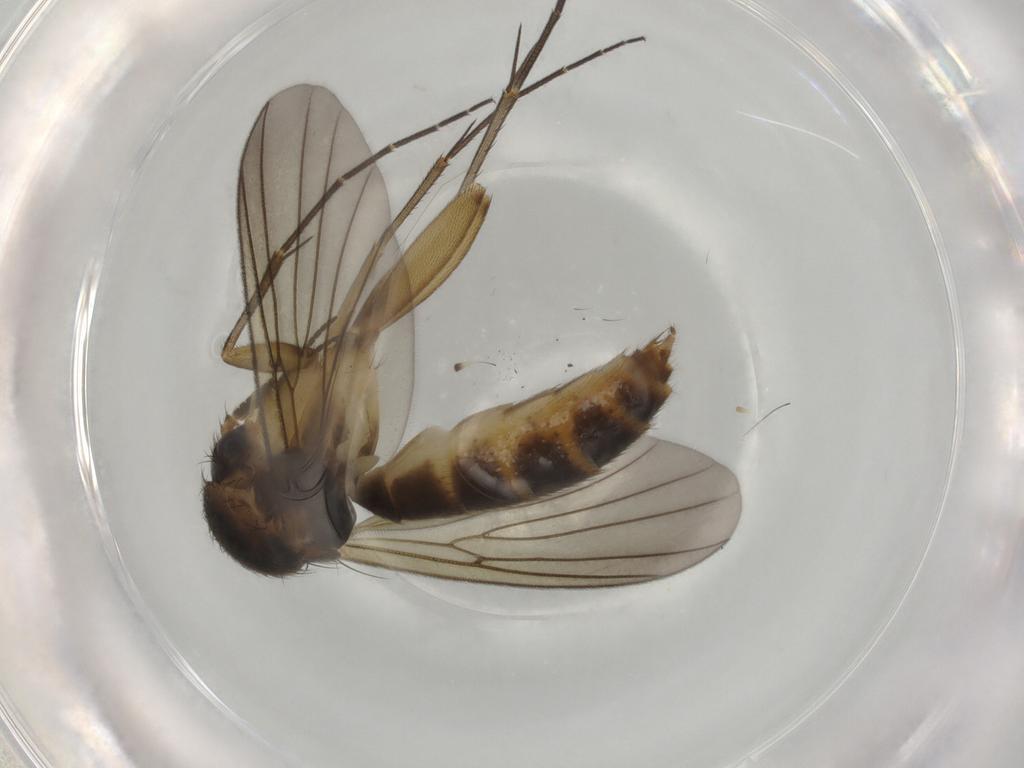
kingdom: Animalia
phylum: Arthropoda
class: Insecta
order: Diptera
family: Mycetophilidae
